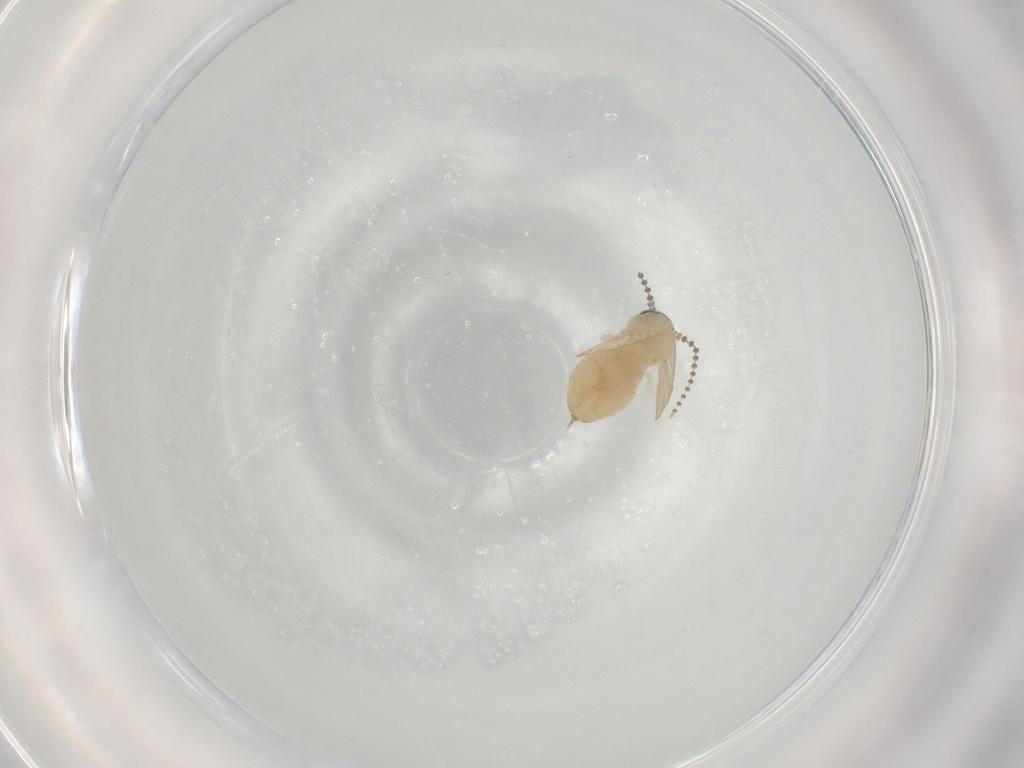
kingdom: Animalia
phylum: Arthropoda
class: Insecta
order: Diptera
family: Psychodidae
